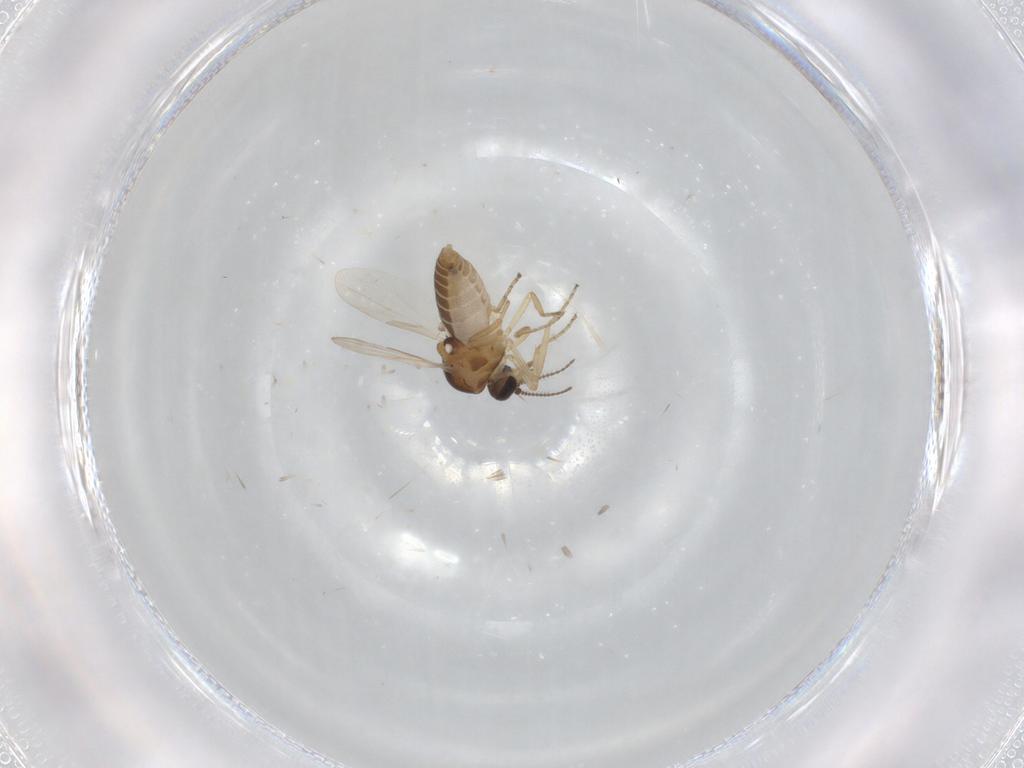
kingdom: Animalia
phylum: Arthropoda
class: Insecta
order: Diptera
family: Ceratopogonidae
